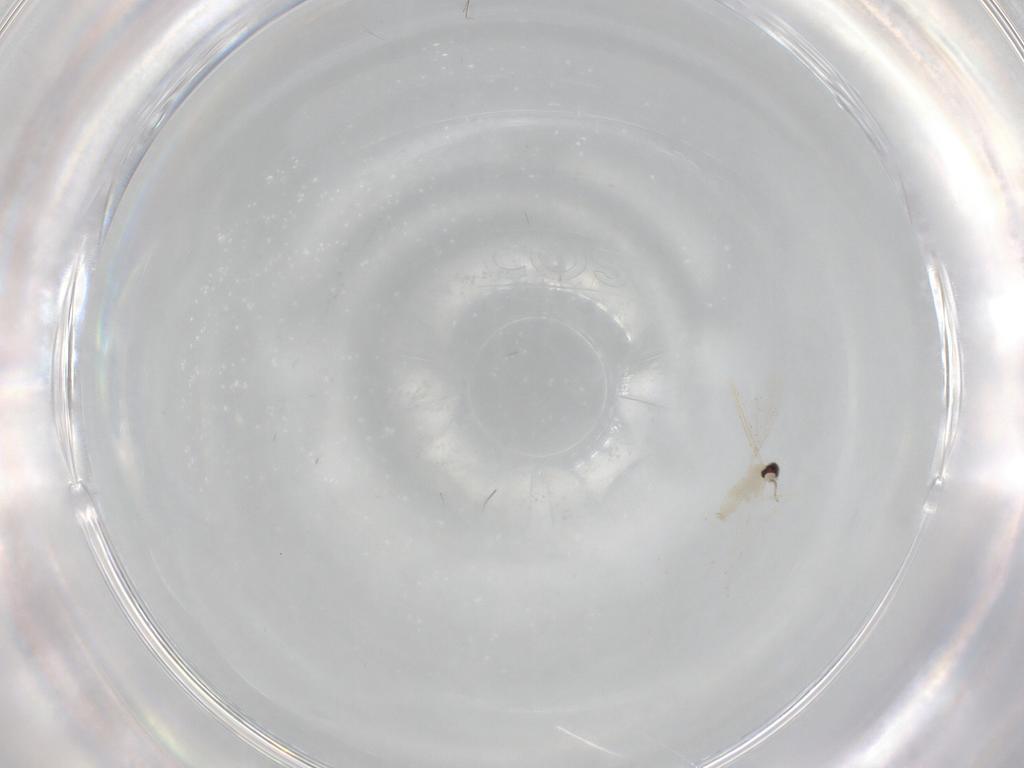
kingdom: Animalia
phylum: Arthropoda
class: Insecta
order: Diptera
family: Cecidomyiidae
